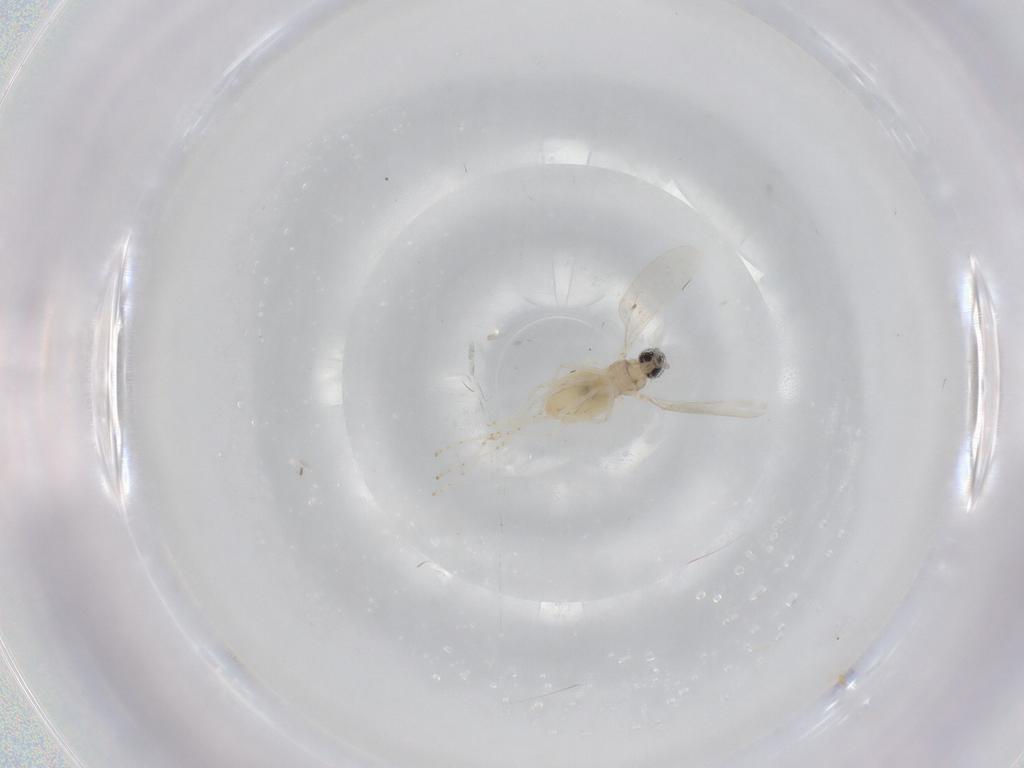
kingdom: Animalia
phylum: Arthropoda
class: Insecta
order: Diptera
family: Cecidomyiidae
